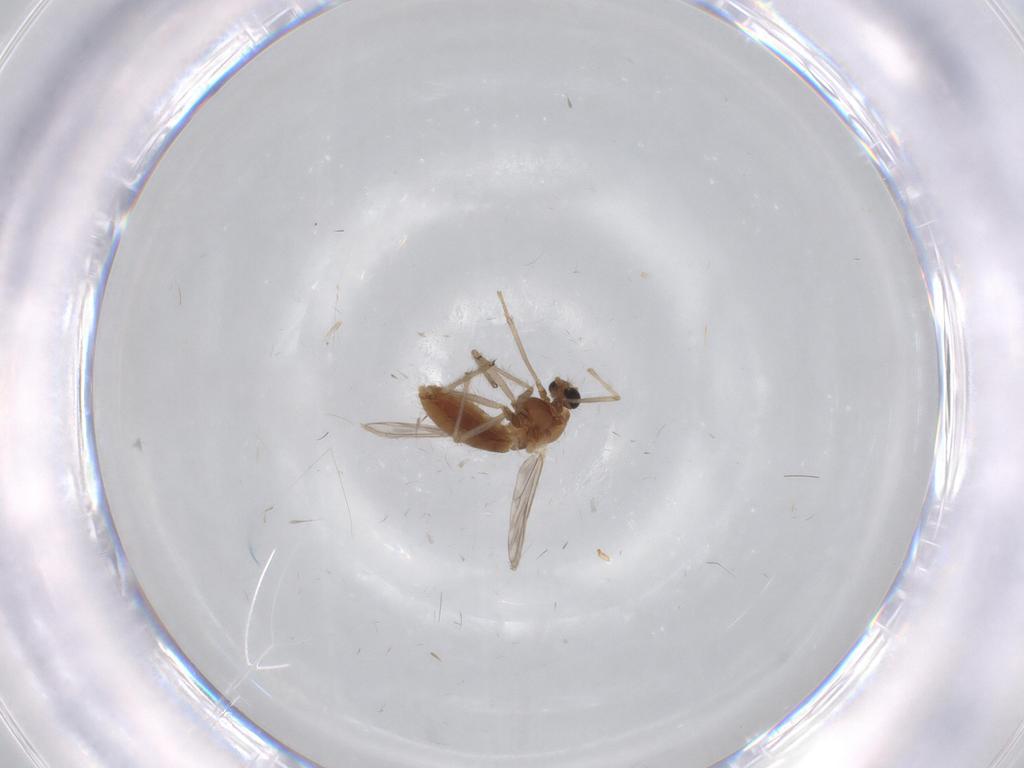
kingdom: Animalia
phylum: Arthropoda
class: Insecta
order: Diptera
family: Chironomidae
